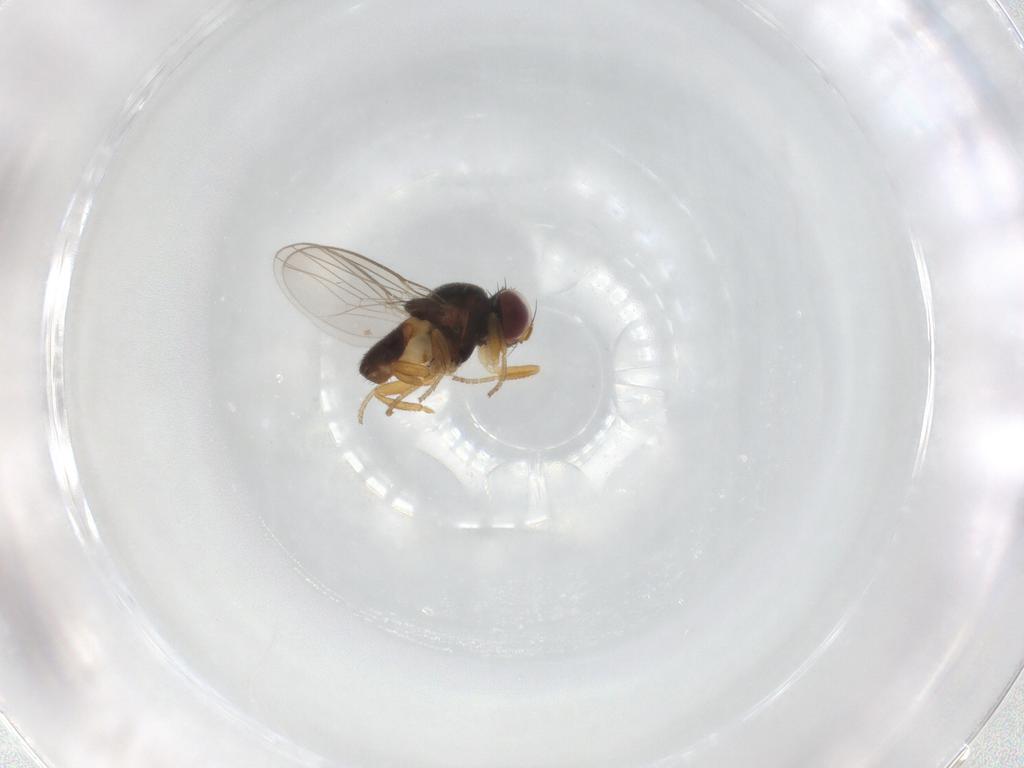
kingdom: Animalia
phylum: Arthropoda
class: Insecta
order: Diptera
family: Chloropidae
